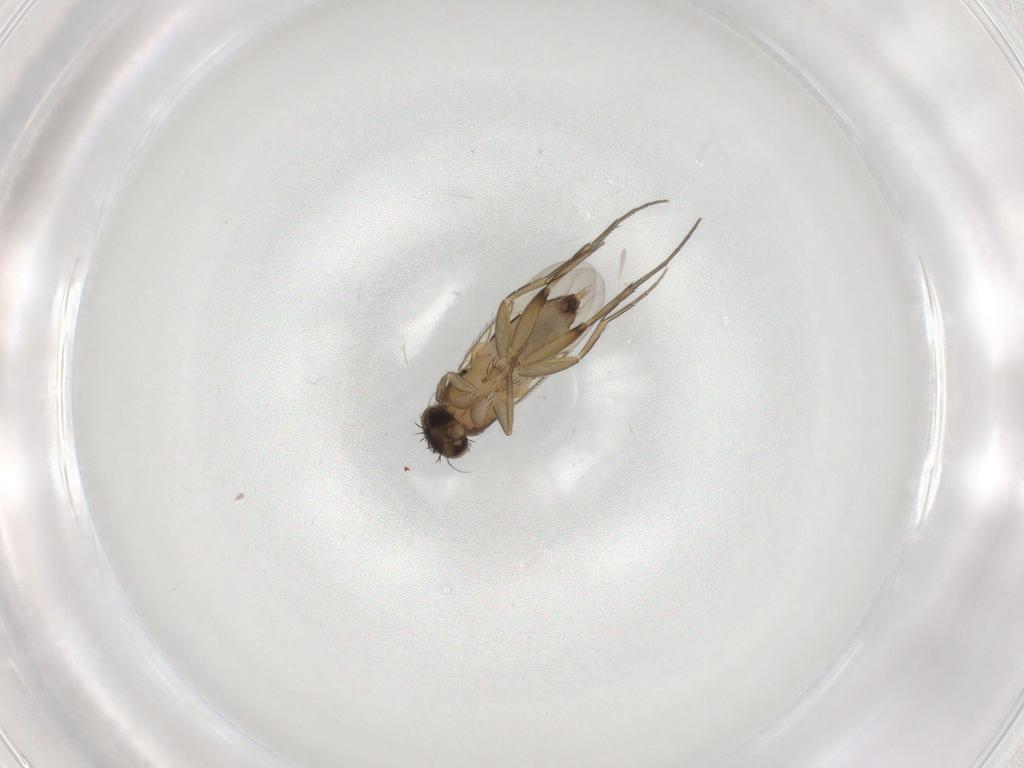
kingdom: Animalia
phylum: Arthropoda
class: Insecta
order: Diptera
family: Phoridae
